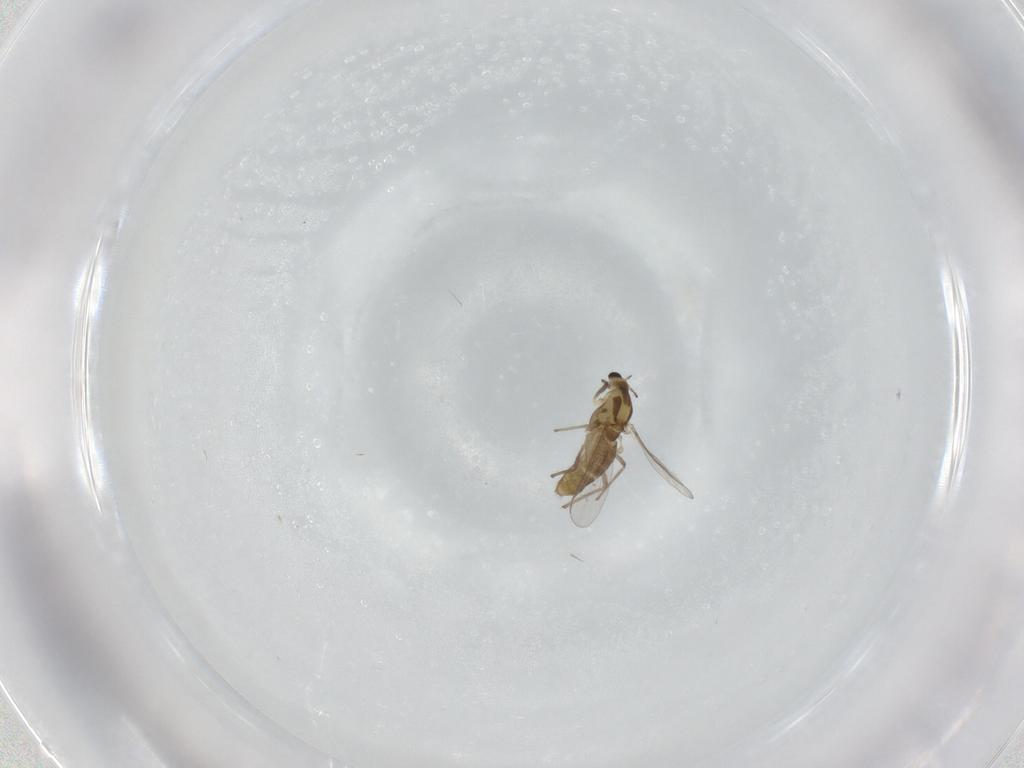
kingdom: Animalia
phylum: Arthropoda
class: Insecta
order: Diptera
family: Chironomidae
